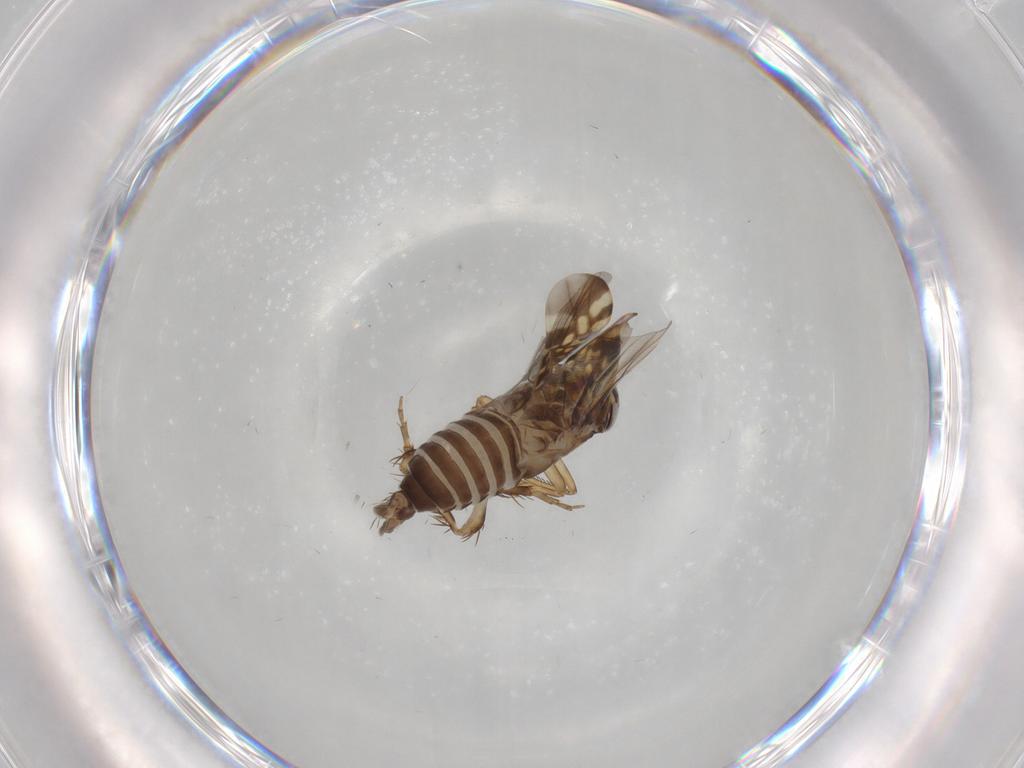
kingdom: Animalia
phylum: Arthropoda
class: Insecta
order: Hemiptera
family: Cicadellidae
